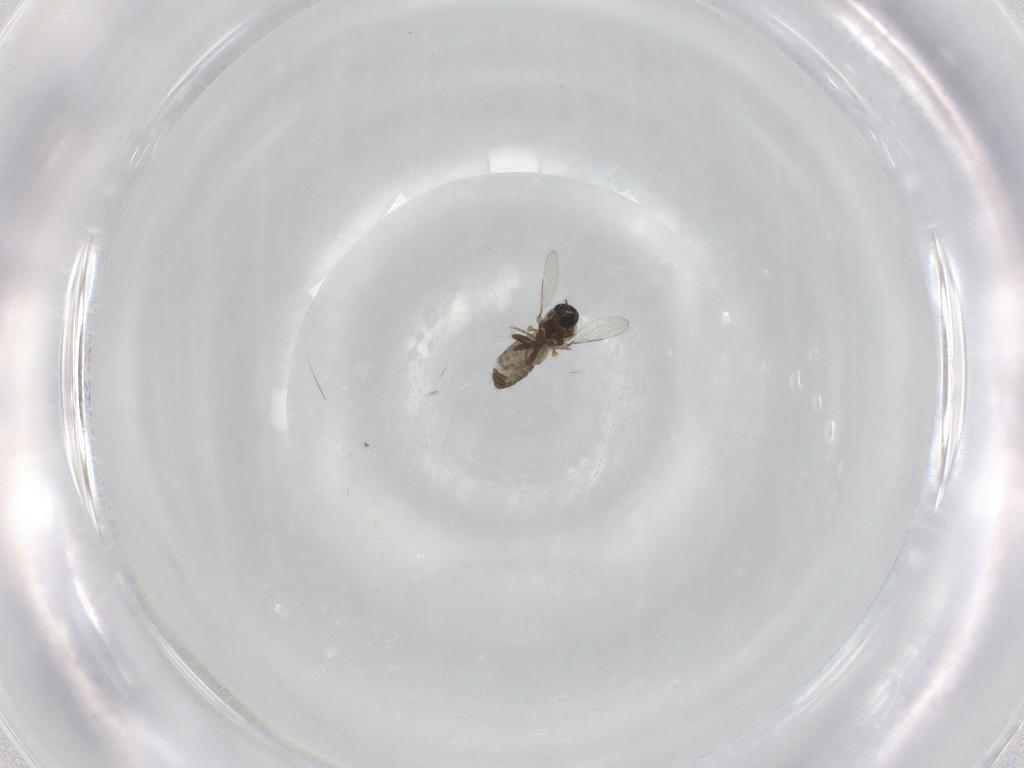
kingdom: Animalia
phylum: Arthropoda
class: Insecta
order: Diptera
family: Ceratopogonidae
